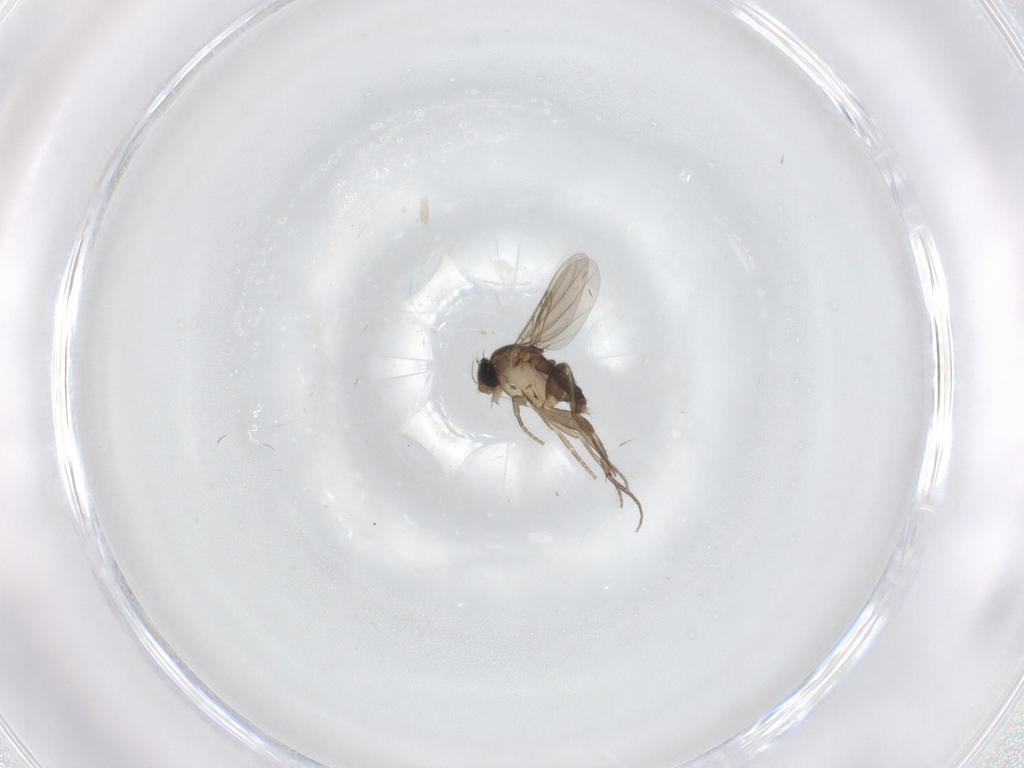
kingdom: Animalia
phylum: Arthropoda
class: Insecta
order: Diptera
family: Phoridae
